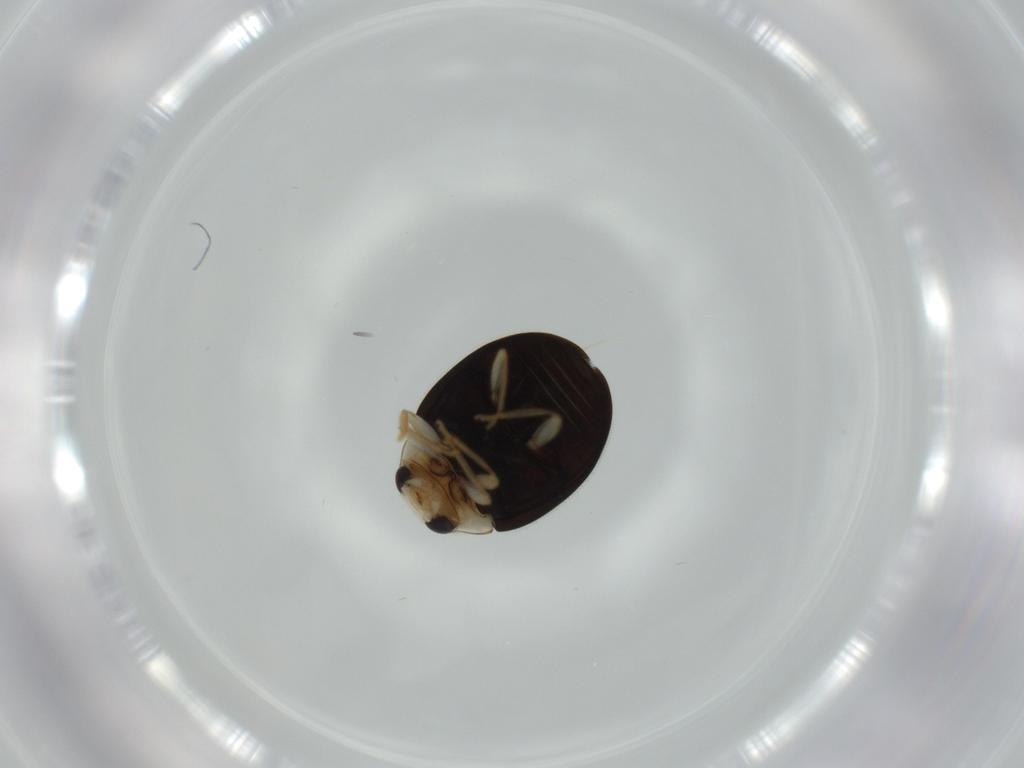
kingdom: Animalia
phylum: Arthropoda
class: Insecta
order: Coleoptera
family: Coccinellidae
